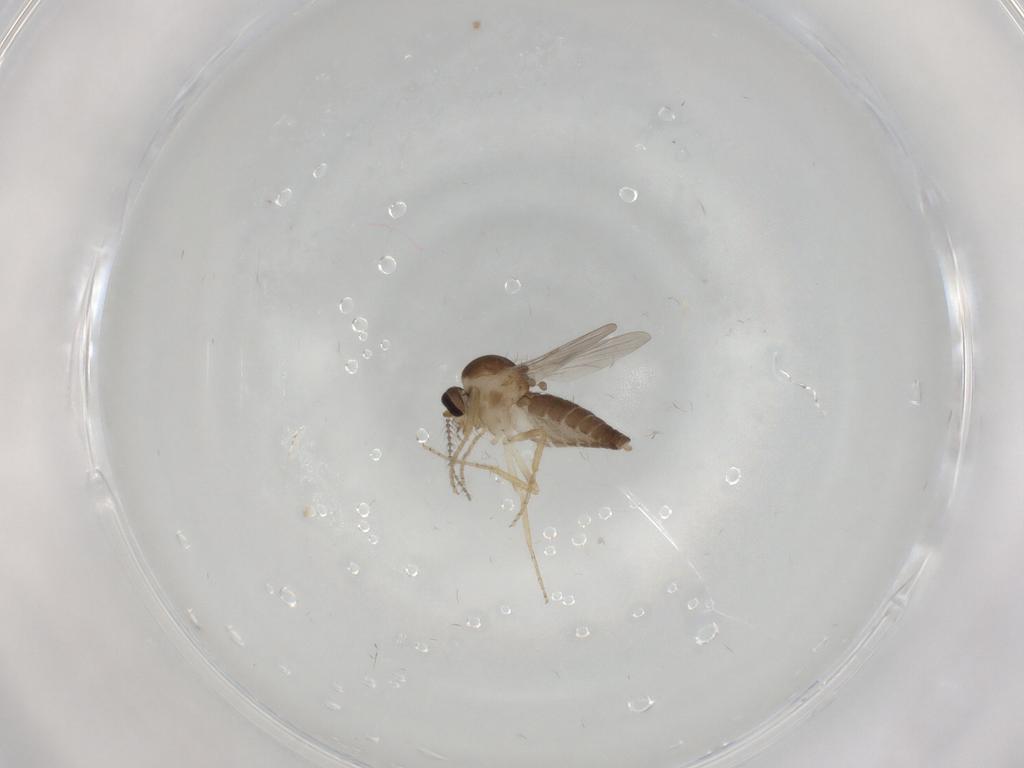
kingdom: Animalia
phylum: Arthropoda
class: Insecta
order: Diptera
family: Ceratopogonidae
